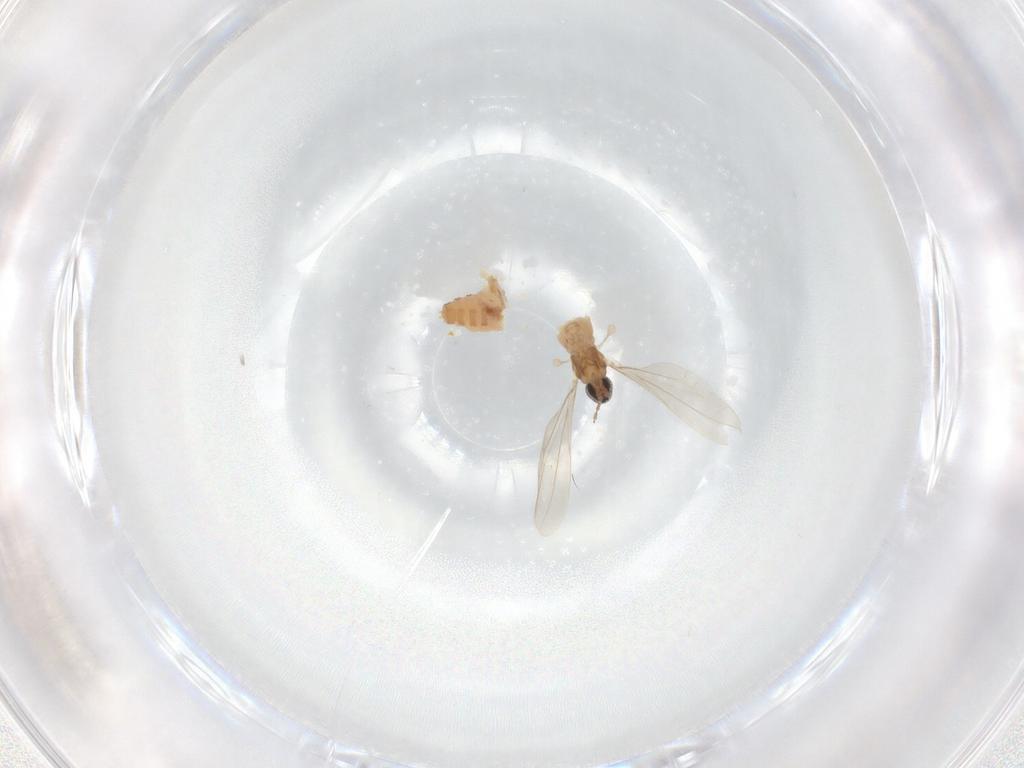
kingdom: Animalia
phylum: Arthropoda
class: Insecta
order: Diptera
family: Cecidomyiidae
